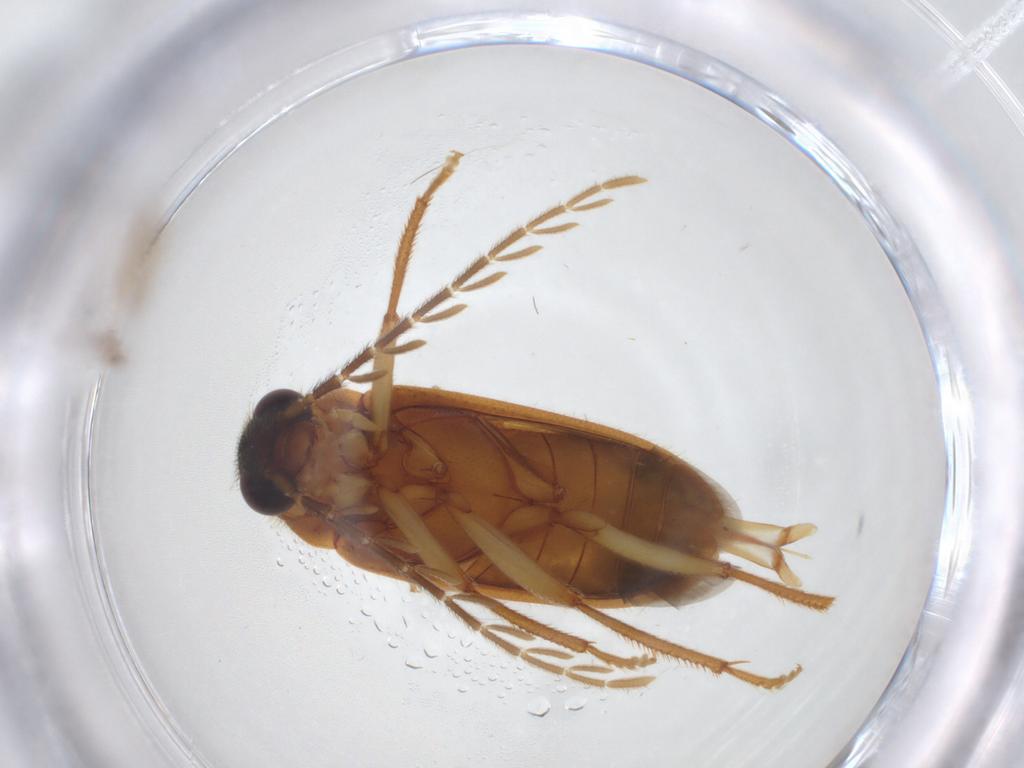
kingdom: Animalia
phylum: Arthropoda
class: Insecta
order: Coleoptera
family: Ptilodactylidae
